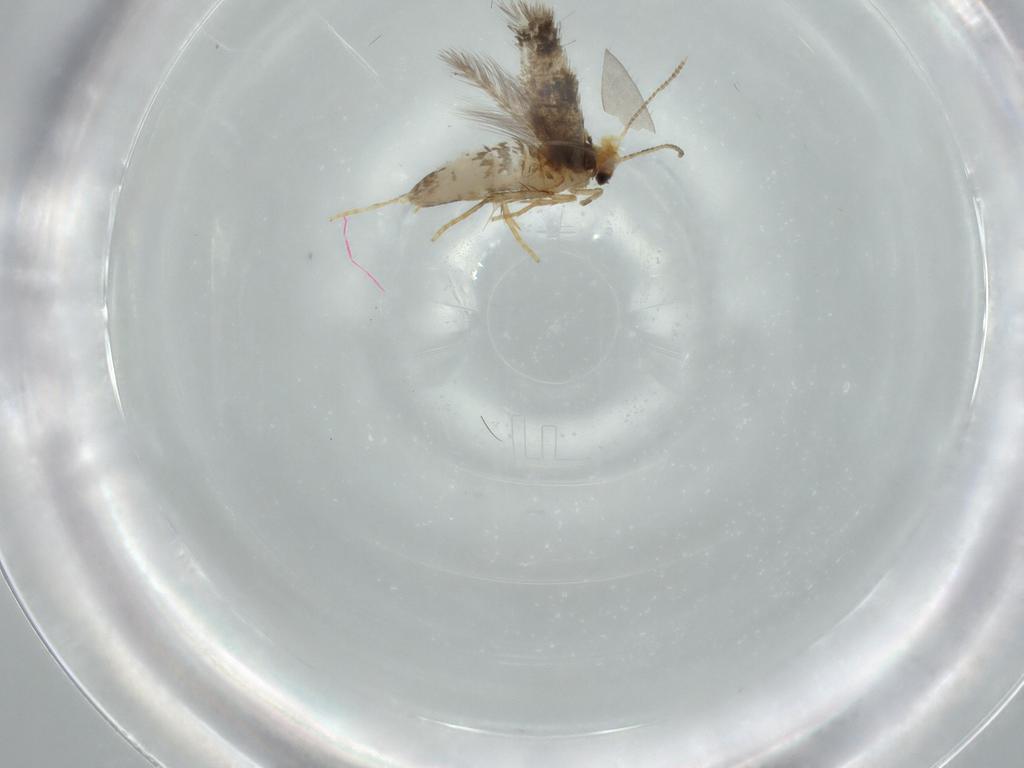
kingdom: Animalia
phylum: Arthropoda
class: Insecta
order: Lepidoptera
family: Nepticulidae
